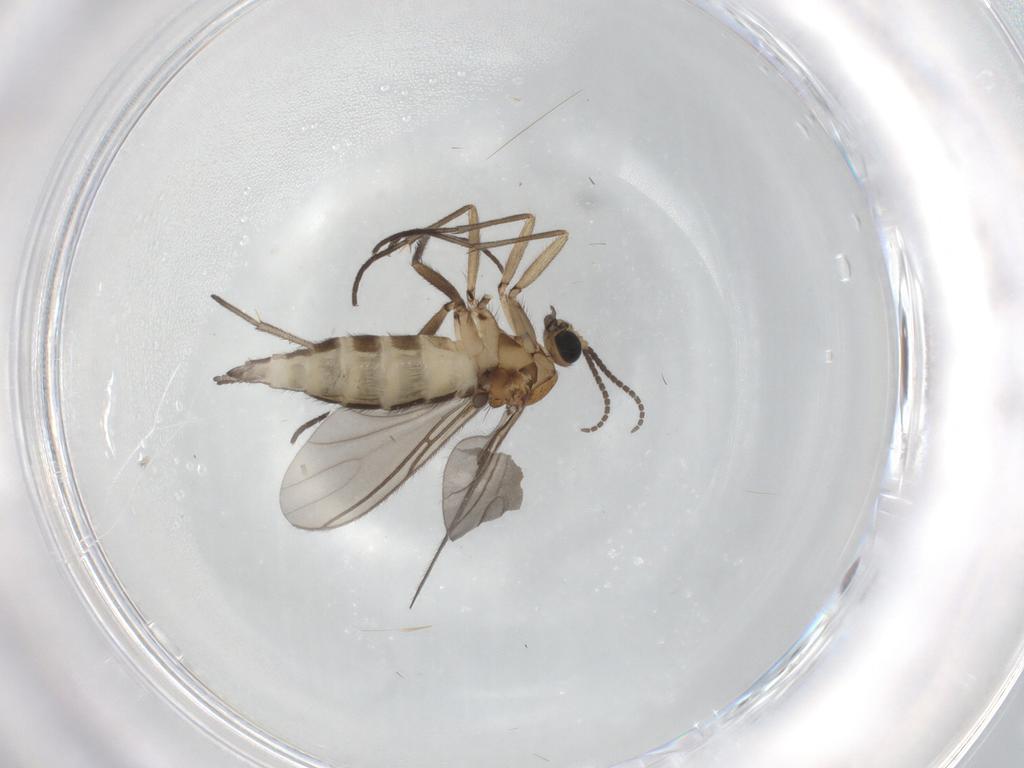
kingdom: Animalia
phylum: Arthropoda
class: Insecta
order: Diptera
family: Sciaridae
